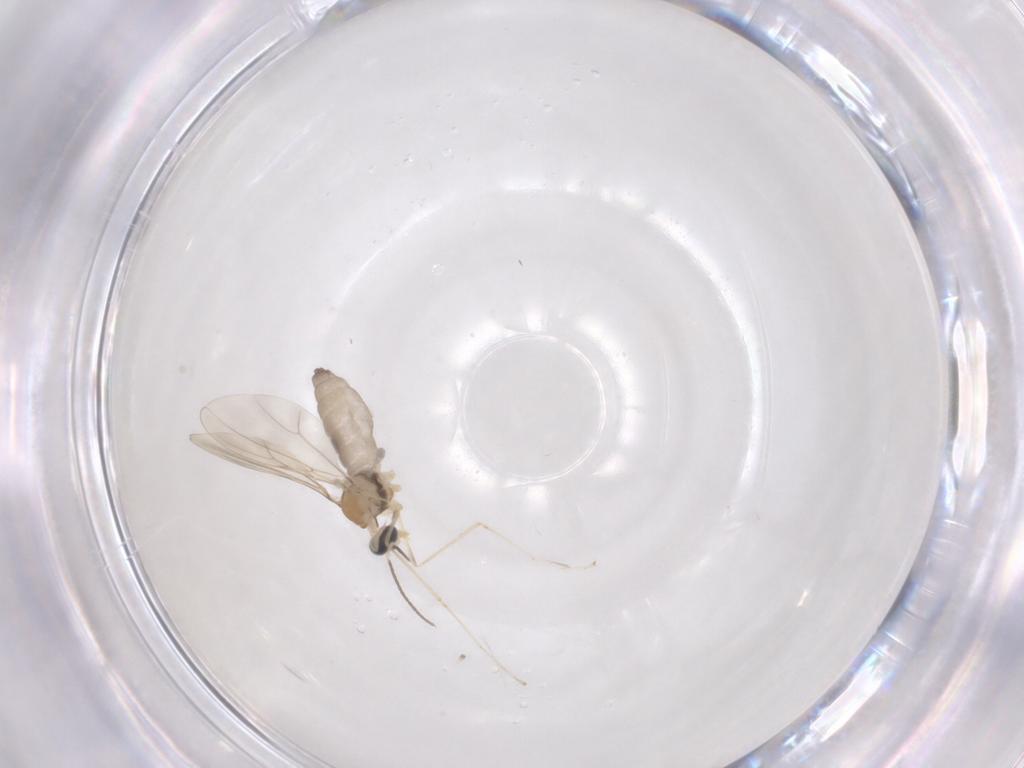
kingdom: Animalia
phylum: Arthropoda
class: Insecta
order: Diptera
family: Cecidomyiidae
